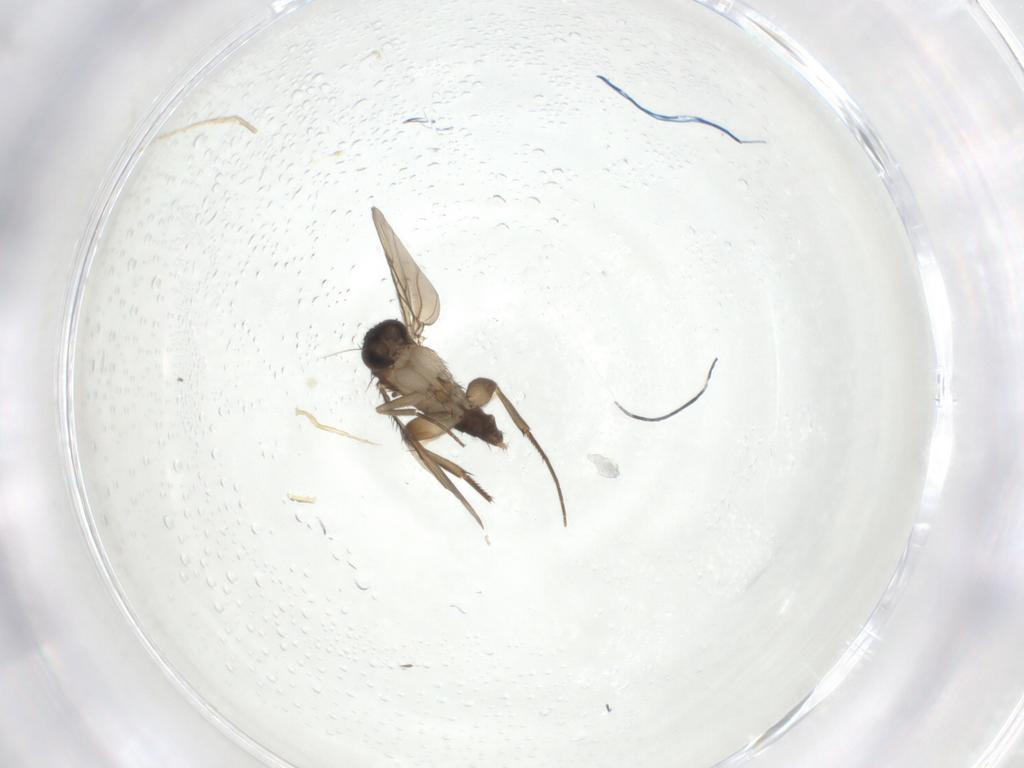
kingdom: Animalia
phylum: Arthropoda
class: Insecta
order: Diptera
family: Phoridae
